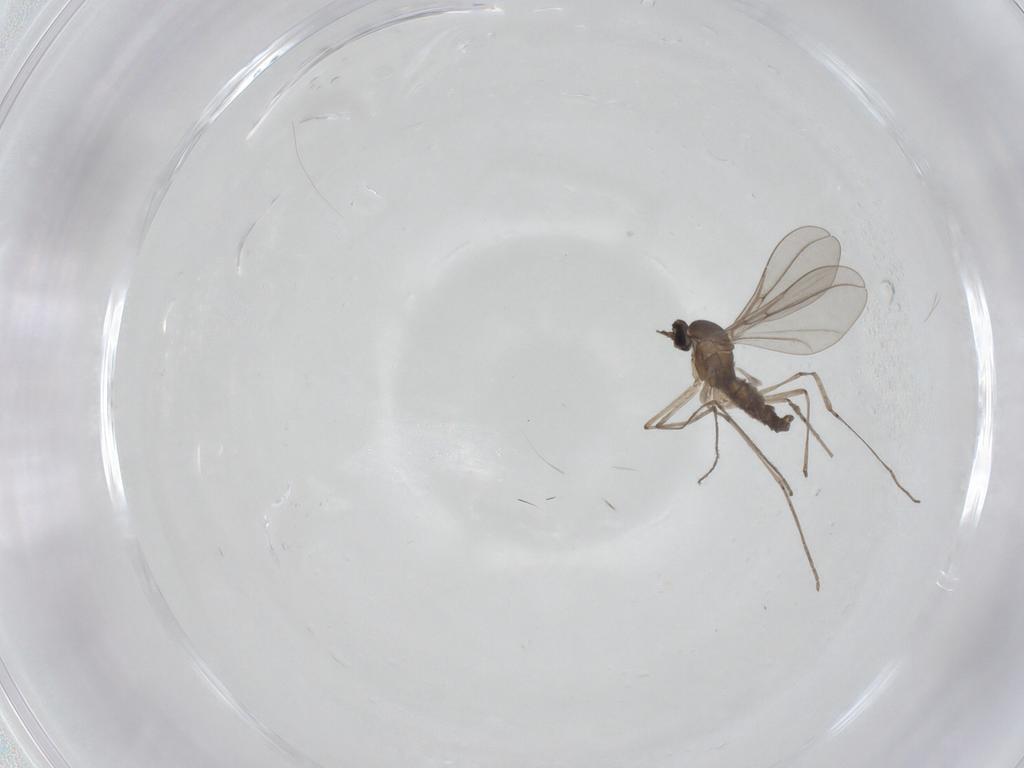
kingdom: Animalia
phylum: Arthropoda
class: Insecta
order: Diptera
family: Cecidomyiidae
